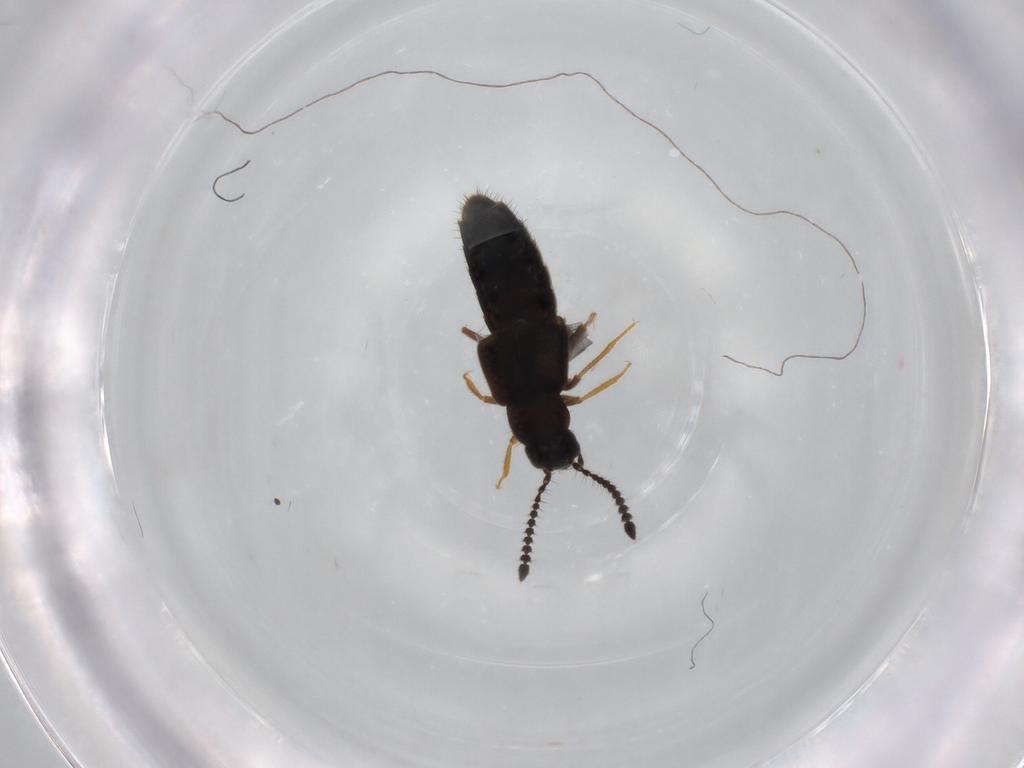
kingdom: Animalia
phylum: Arthropoda
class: Insecta
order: Coleoptera
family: Staphylinidae
